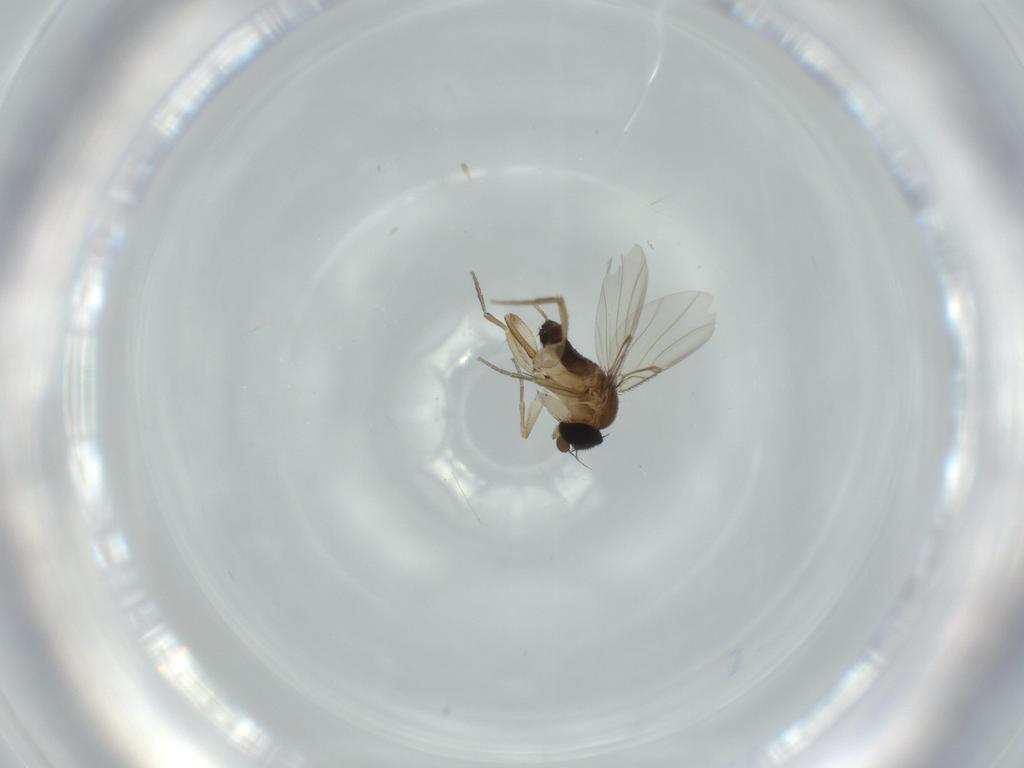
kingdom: Animalia
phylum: Arthropoda
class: Insecta
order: Diptera
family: Phoridae
